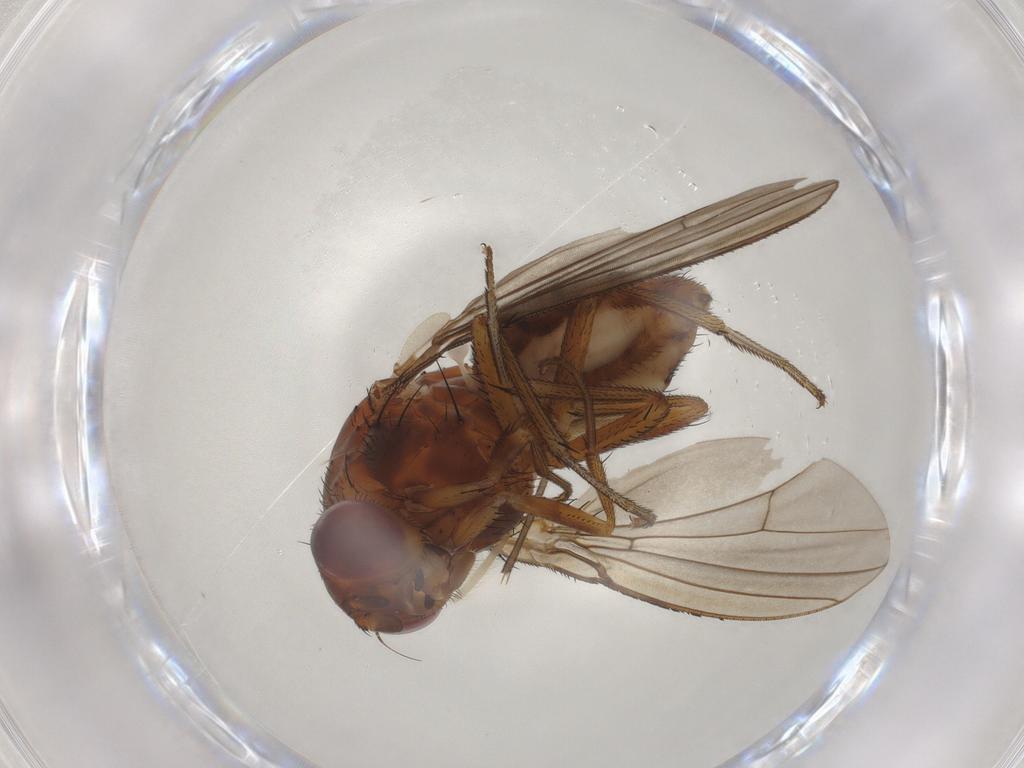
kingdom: Animalia
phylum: Arthropoda
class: Insecta
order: Diptera
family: Curtonotidae
